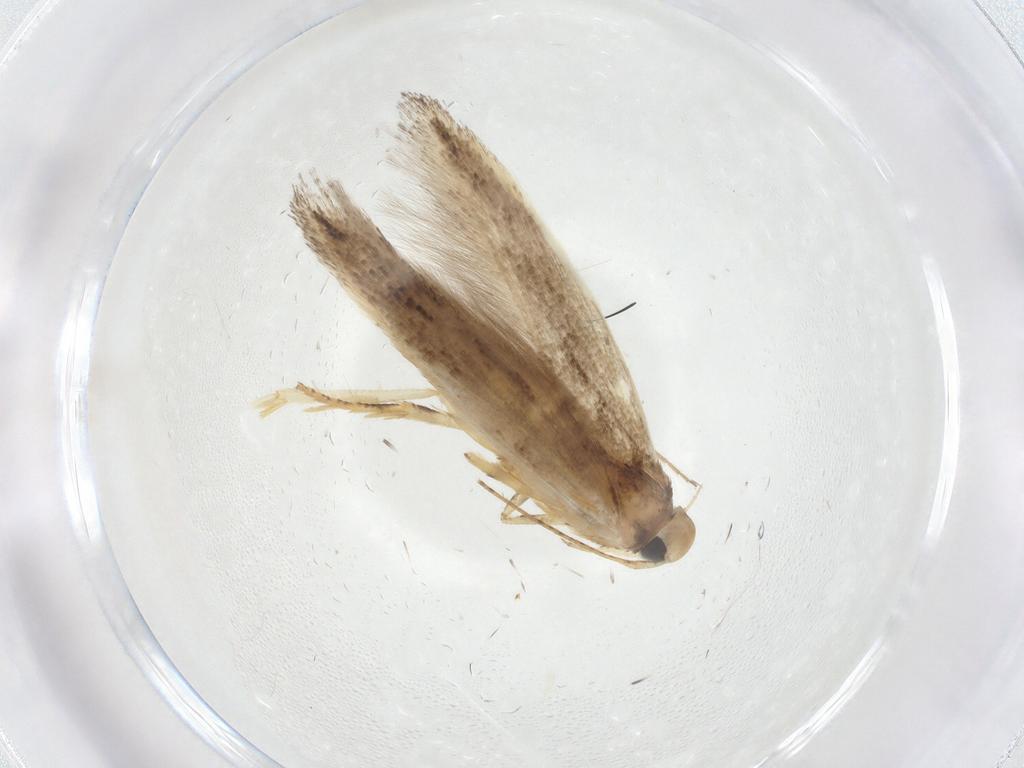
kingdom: Animalia
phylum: Arthropoda
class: Insecta
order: Lepidoptera
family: Cosmopterigidae
